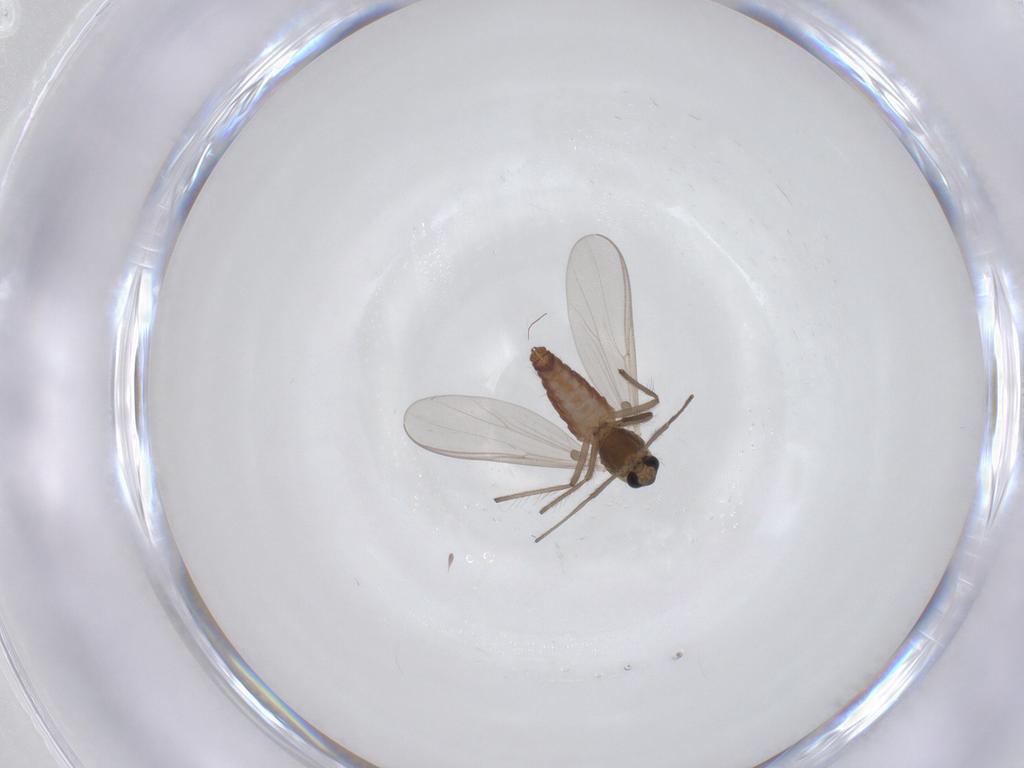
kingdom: Animalia
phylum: Arthropoda
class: Insecta
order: Diptera
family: Chironomidae
